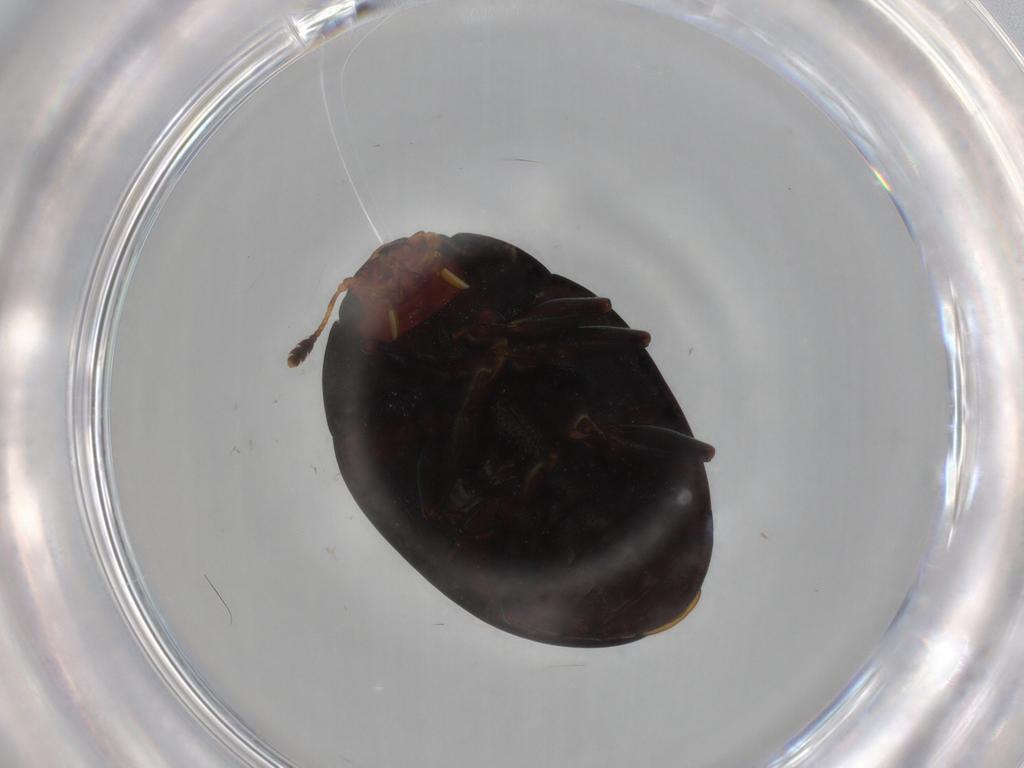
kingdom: Animalia
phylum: Arthropoda
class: Insecta
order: Coleoptera
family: Erotylidae
